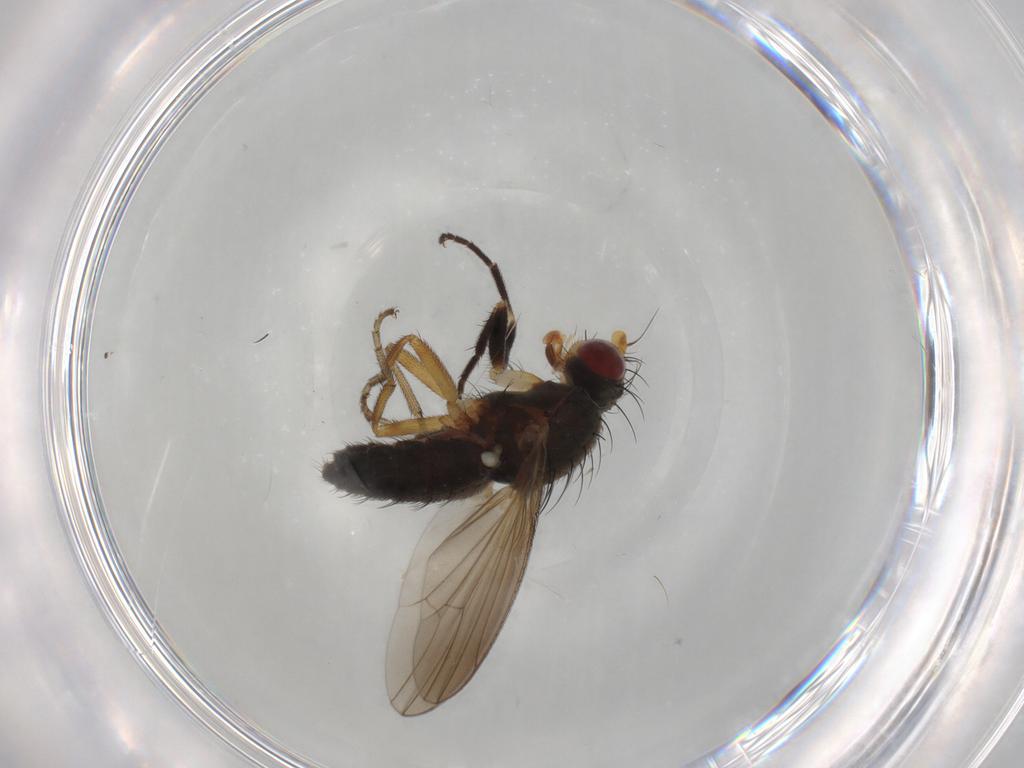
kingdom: Animalia
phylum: Arthropoda
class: Insecta
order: Diptera
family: Heleomyzidae
